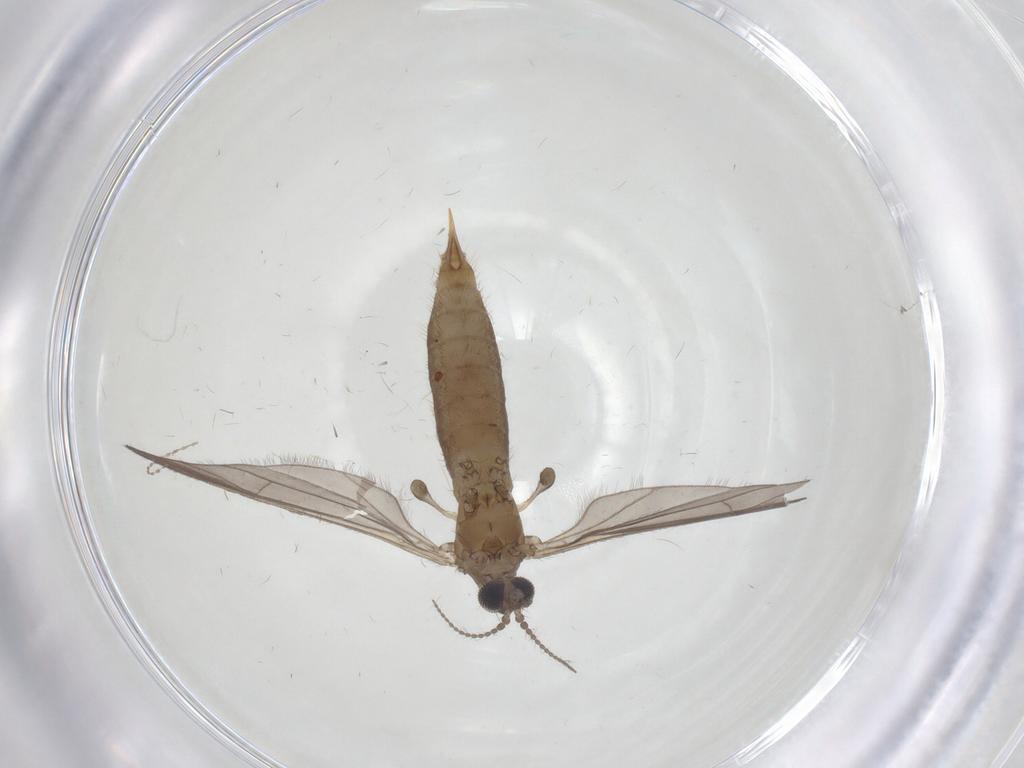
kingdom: Animalia
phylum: Arthropoda
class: Insecta
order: Diptera
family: Limoniidae
